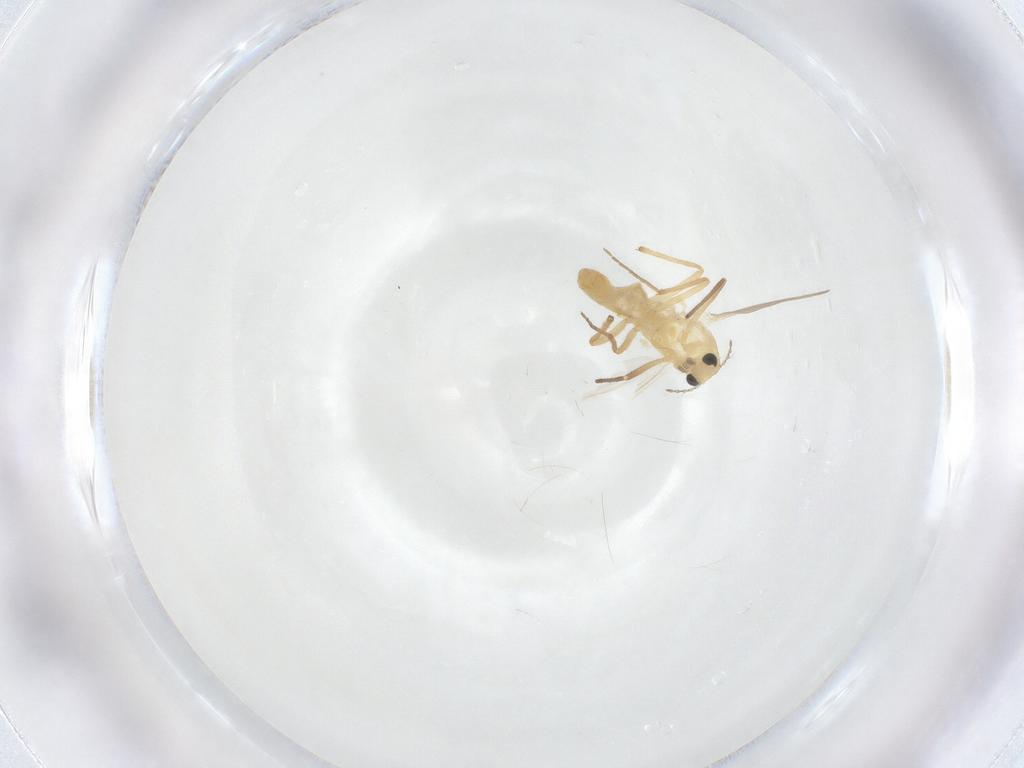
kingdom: Animalia
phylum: Arthropoda
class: Insecta
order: Diptera
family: Chironomidae
